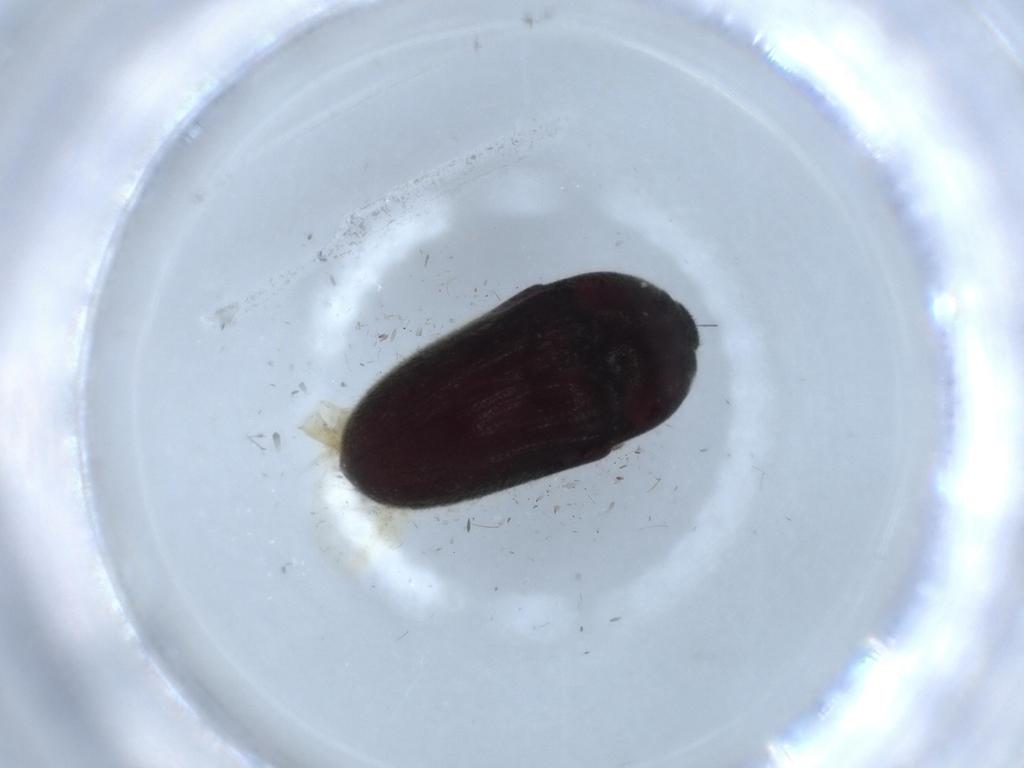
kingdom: Animalia
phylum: Arthropoda
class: Insecta
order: Coleoptera
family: Throscidae
